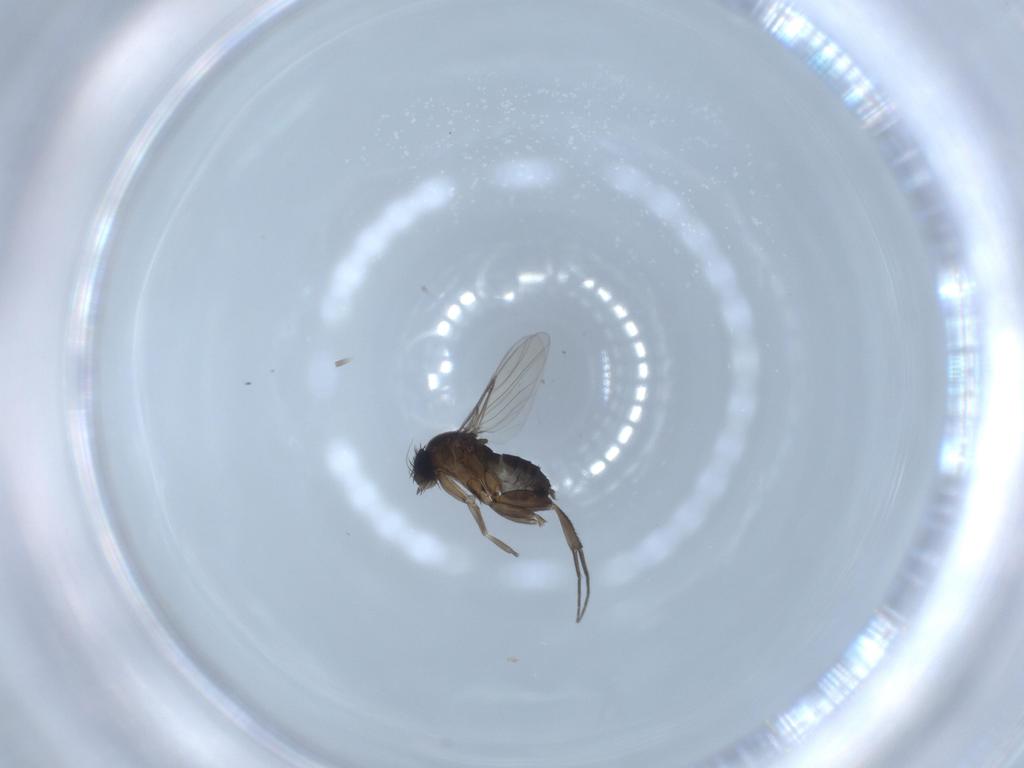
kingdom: Animalia
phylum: Arthropoda
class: Insecta
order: Diptera
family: Phoridae
